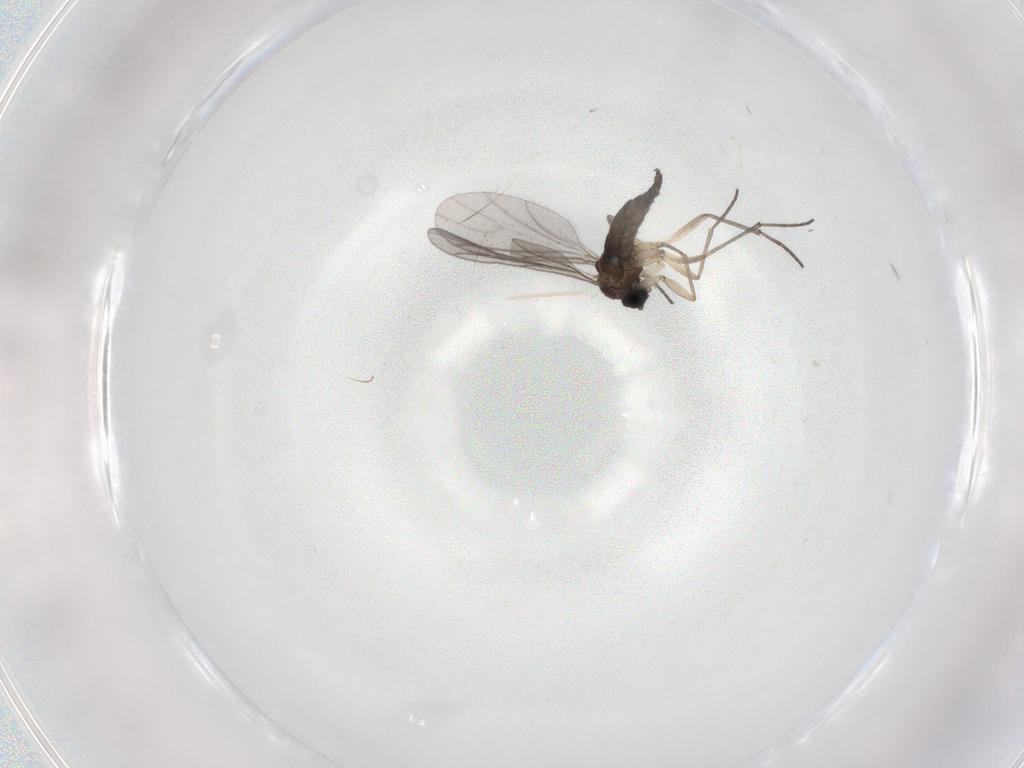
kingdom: Animalia
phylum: Arthropoda
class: Insecta
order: Diptera
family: Sciaridae
